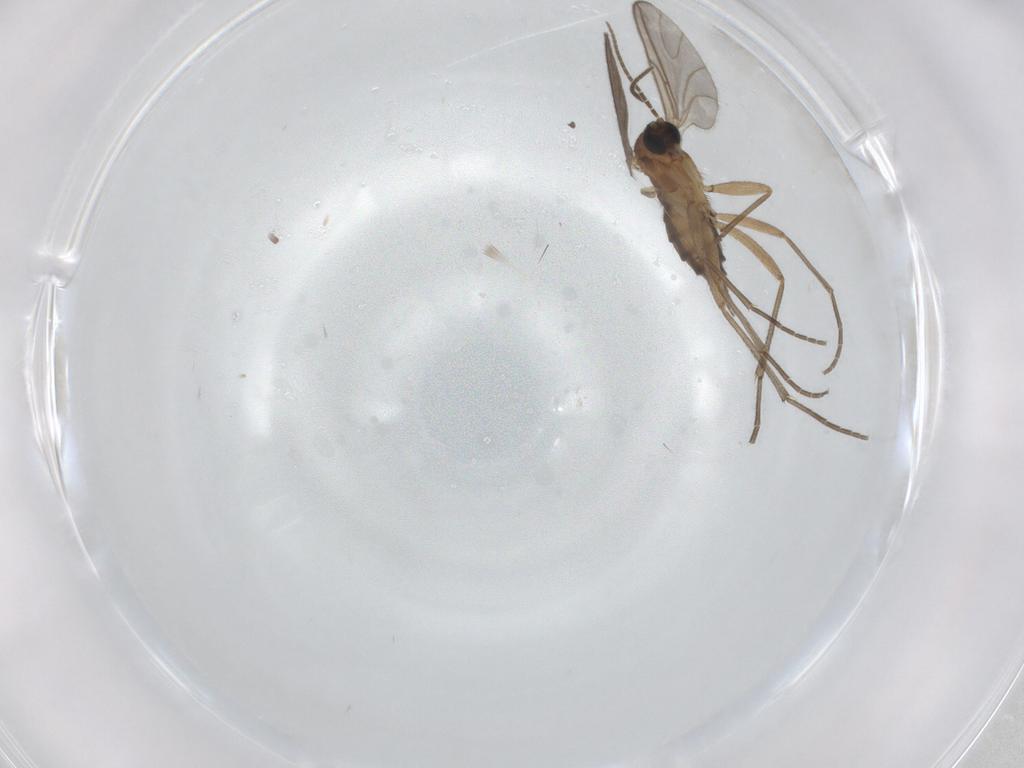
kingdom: Animalia
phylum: Arthropoda
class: Insecta
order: Diptera
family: Sciaridae
